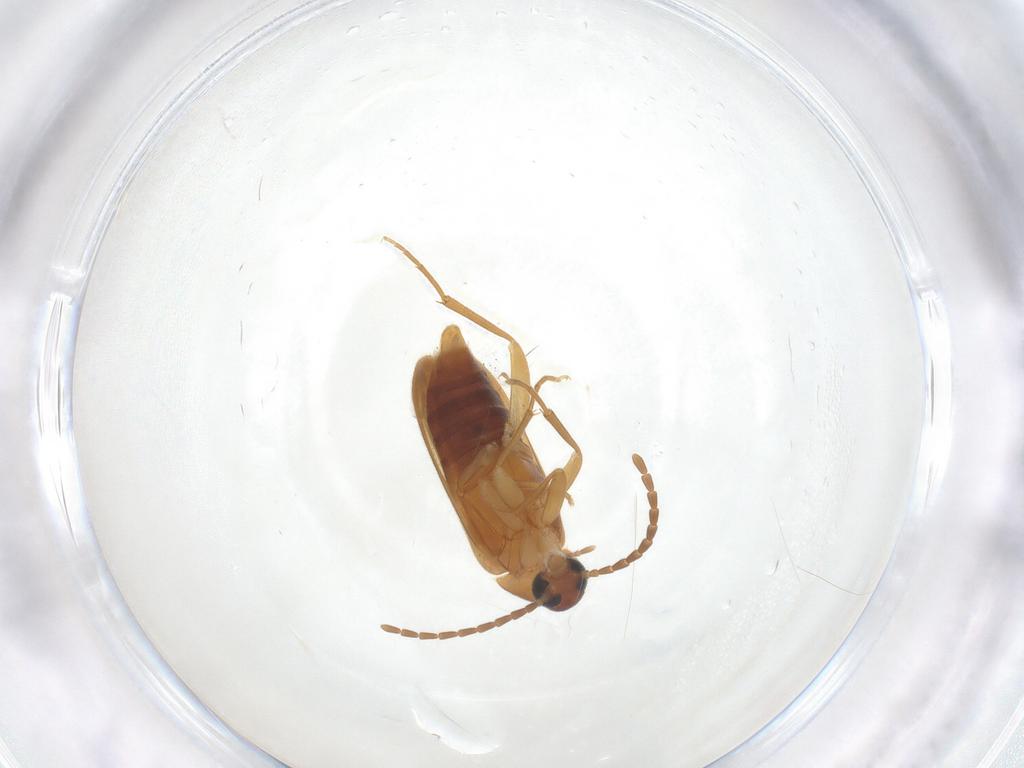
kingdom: Animalia
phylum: Arthropoda
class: Insecta
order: Coleoptera
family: Scraptiidae
